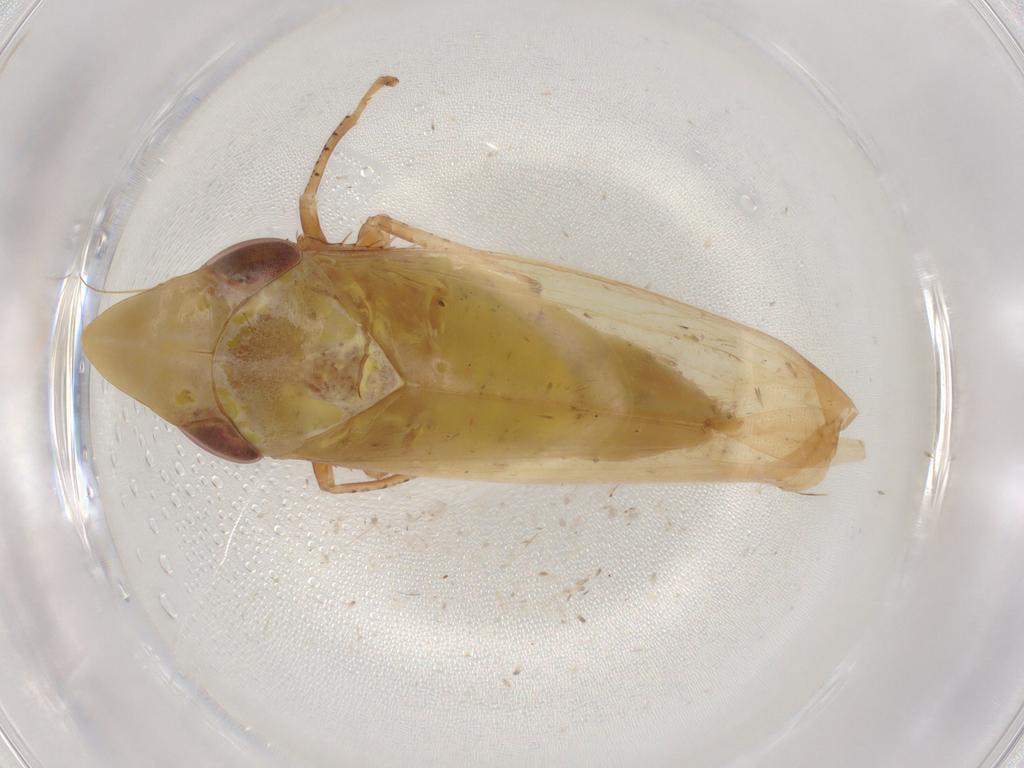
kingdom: Animalia
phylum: Arthropoda
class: Insecta
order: Hemiptera
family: Cicadellidae
